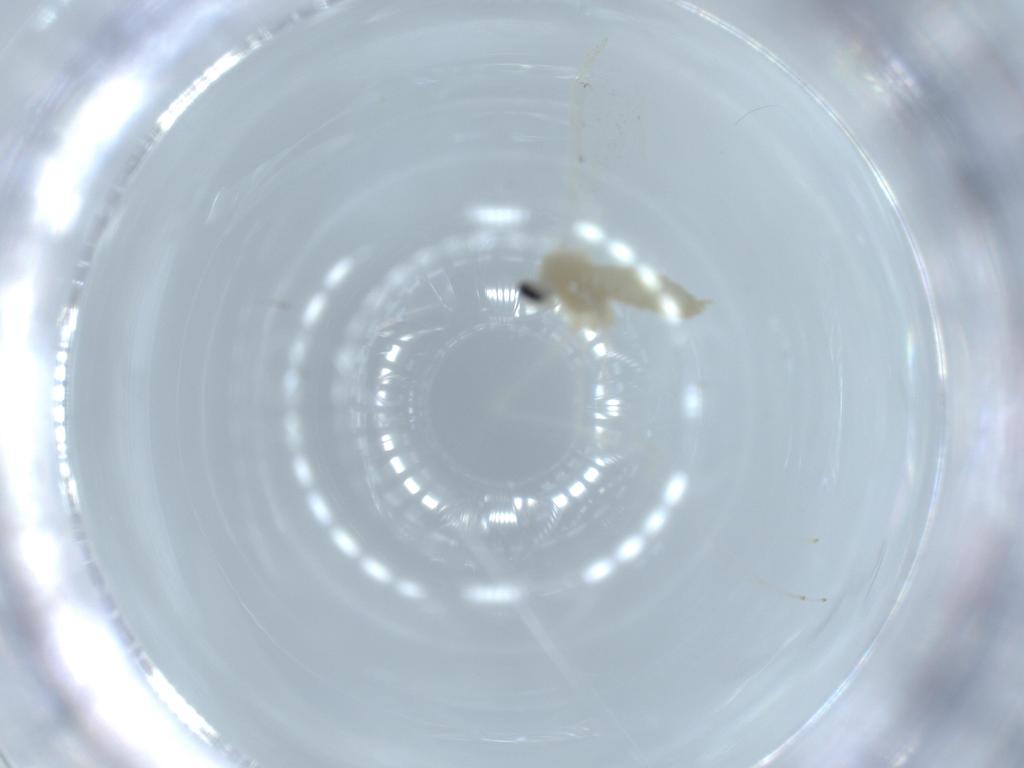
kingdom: Animalia
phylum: Arthropoda
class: Insecta
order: Diptera
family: Cecidomyiidae
